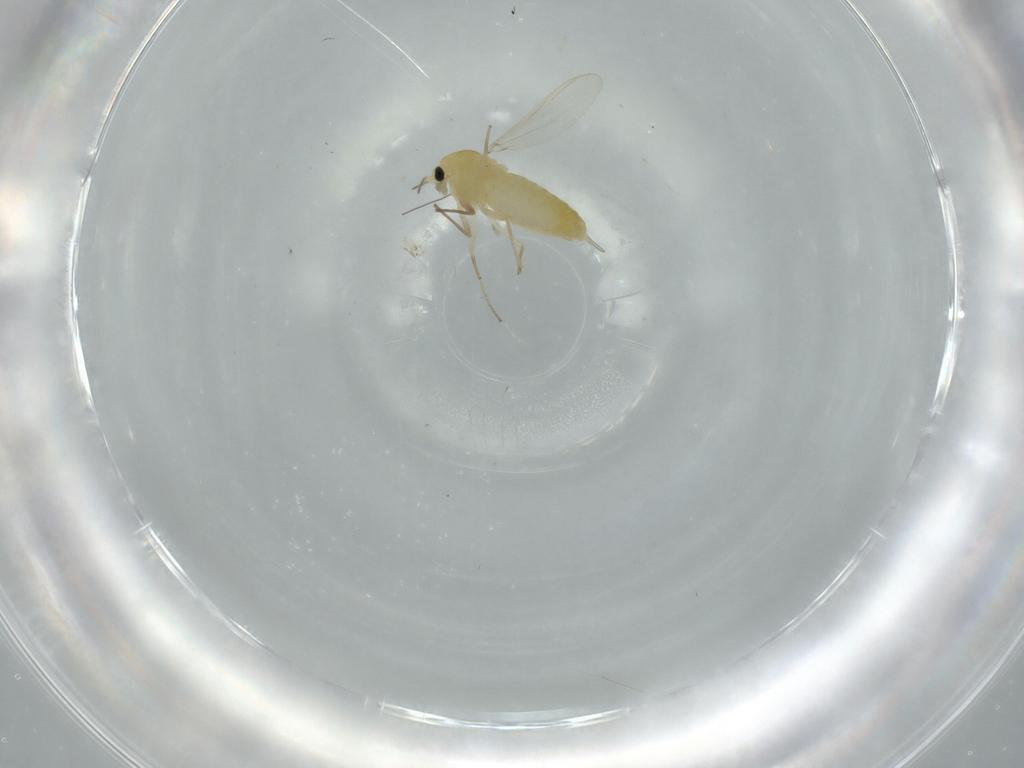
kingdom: Animalia
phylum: Arthropoda
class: Insecta
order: Diptera
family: Chironomidae
